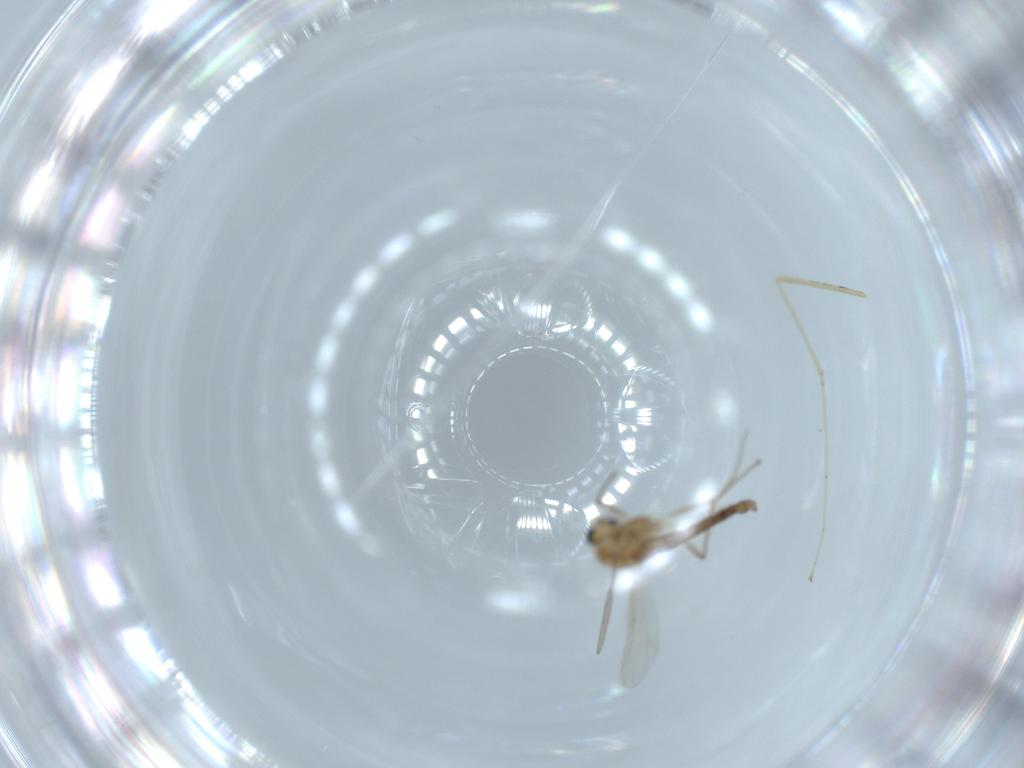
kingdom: Animalia
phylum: Arthropoda
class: Insecta
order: Diptera
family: Chironomidae
